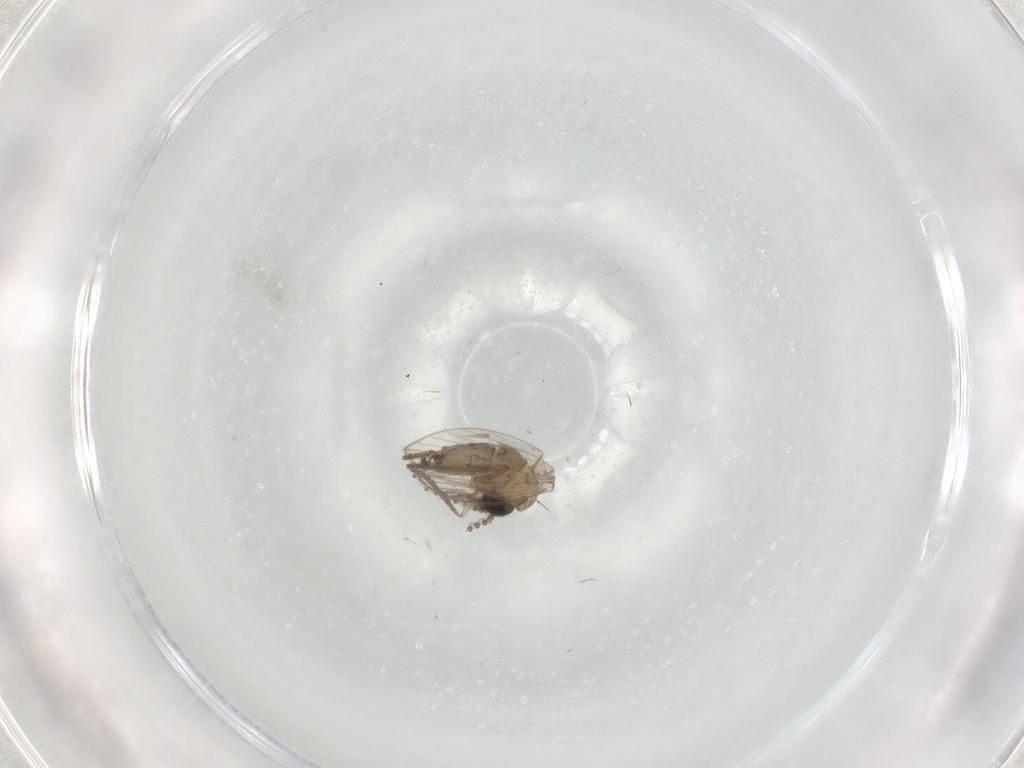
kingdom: Animalia
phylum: Arthropoda
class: Insecta
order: Diptera
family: Psychodidae
